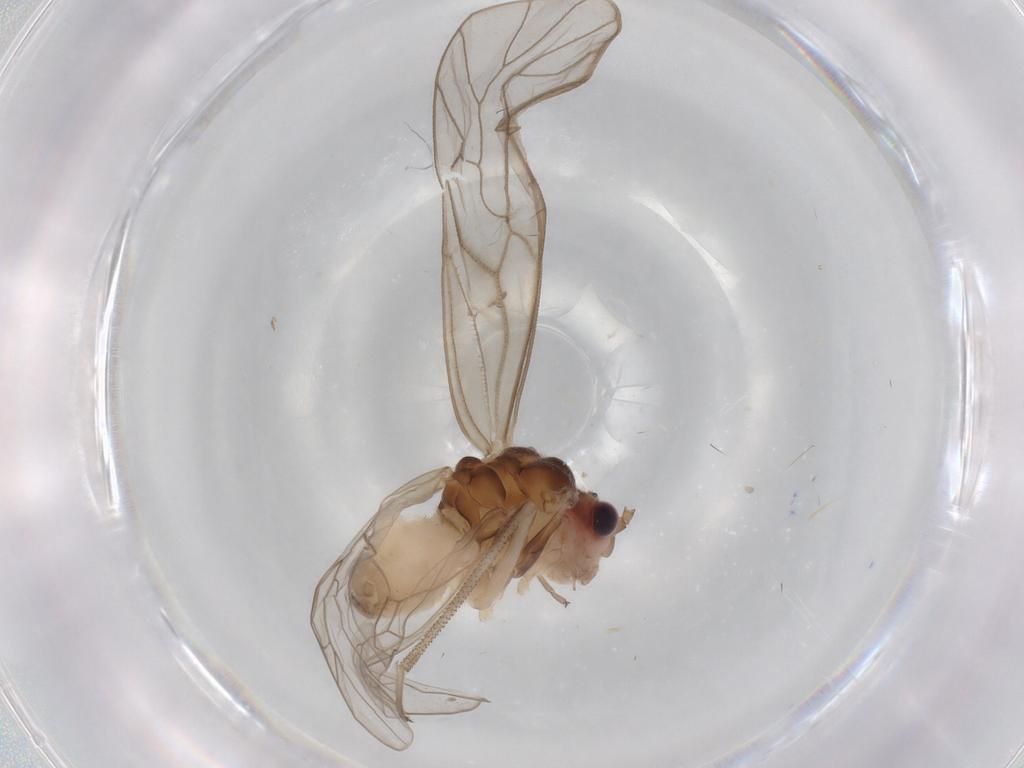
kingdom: Animalia
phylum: Arthropoda
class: Insecta
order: Psocodea
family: Stenopsocidae
